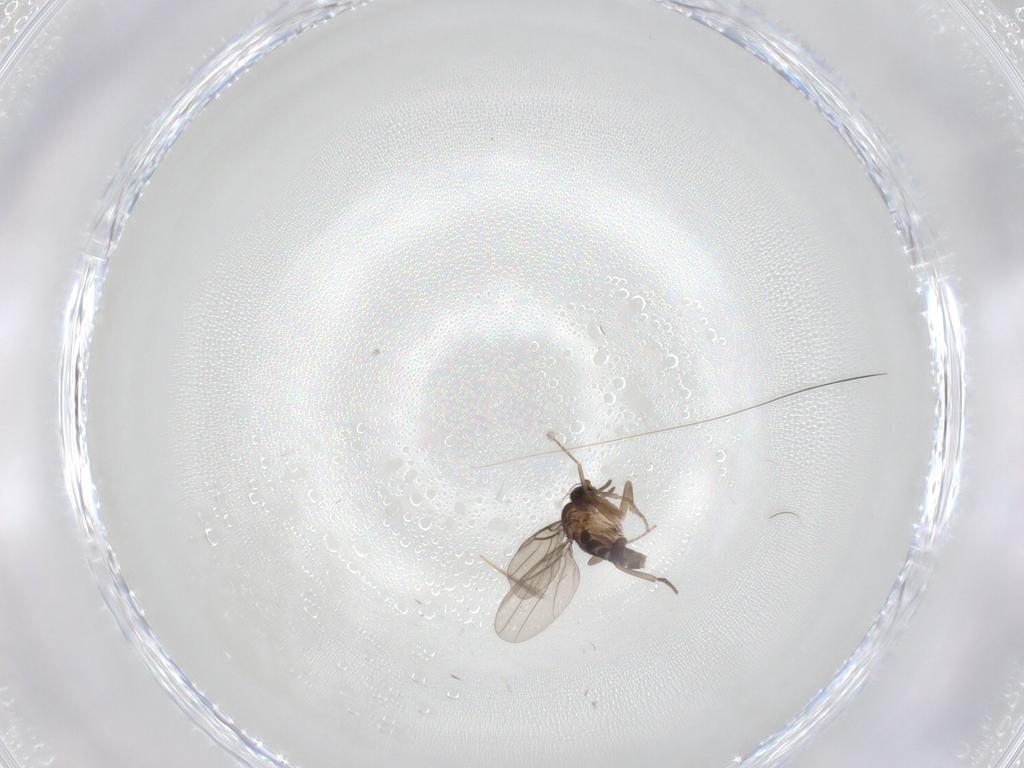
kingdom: Animalia
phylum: Arthropoda
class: Insecta
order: Diptera
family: Phoridae
